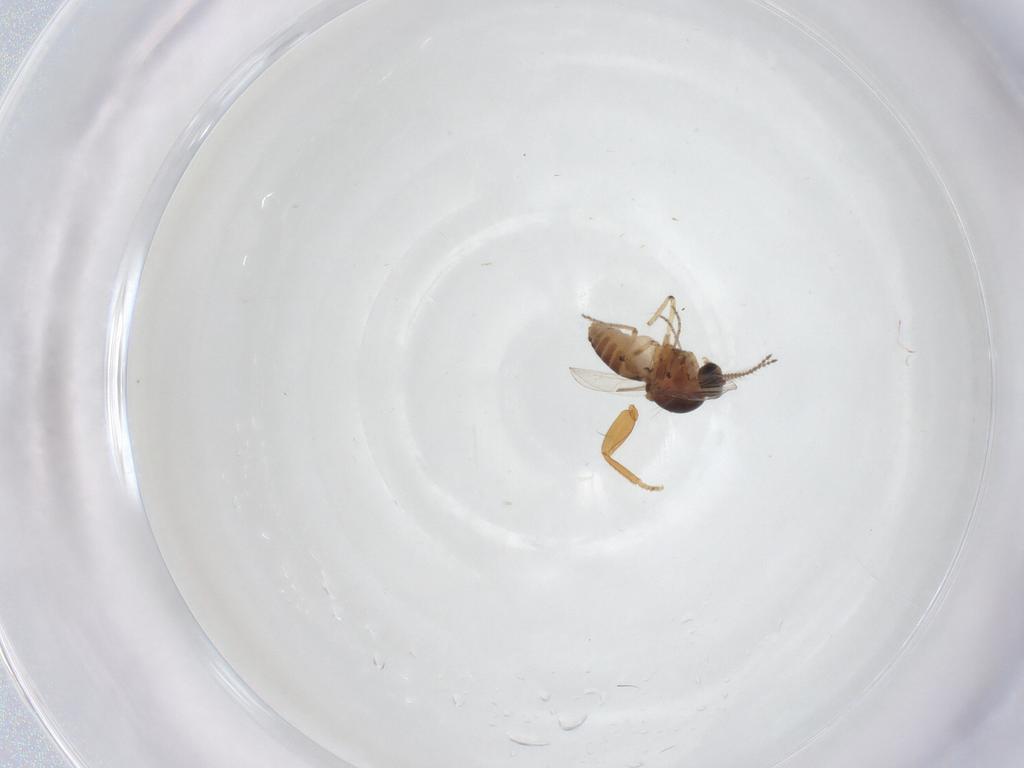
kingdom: Animalia
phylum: Arthropoda
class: Insecta
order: Diptera
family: Ceratopogonidae
